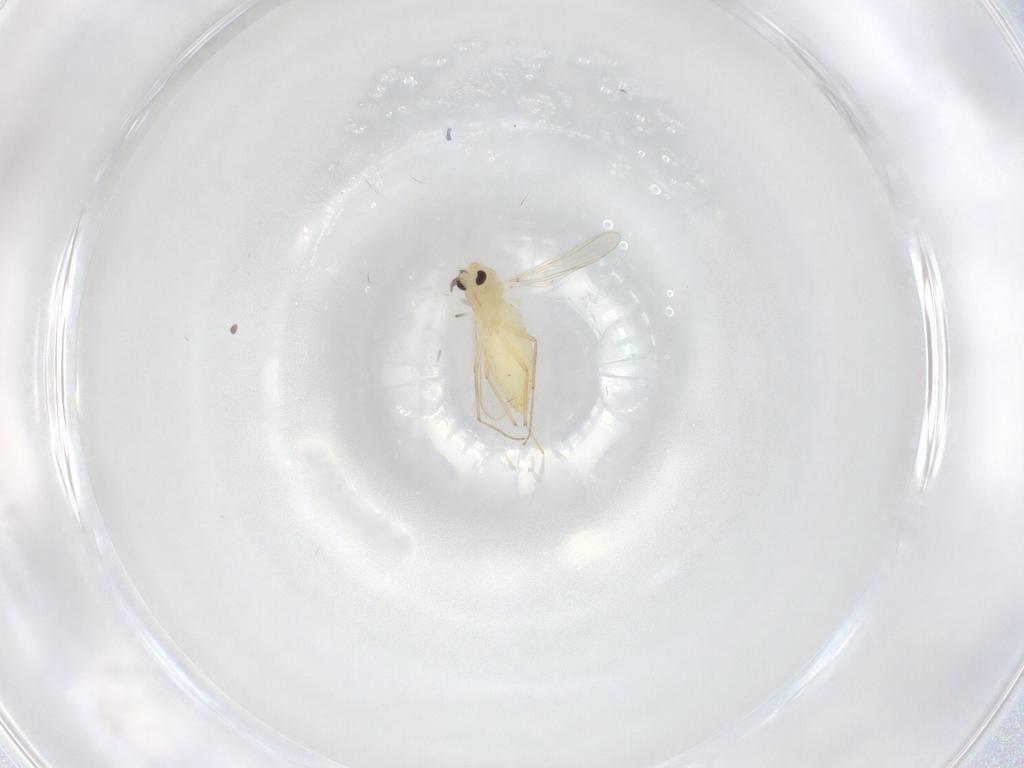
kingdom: Animalia
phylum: Arthropoda
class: Insecta
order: Diptera
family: Chironomidae
